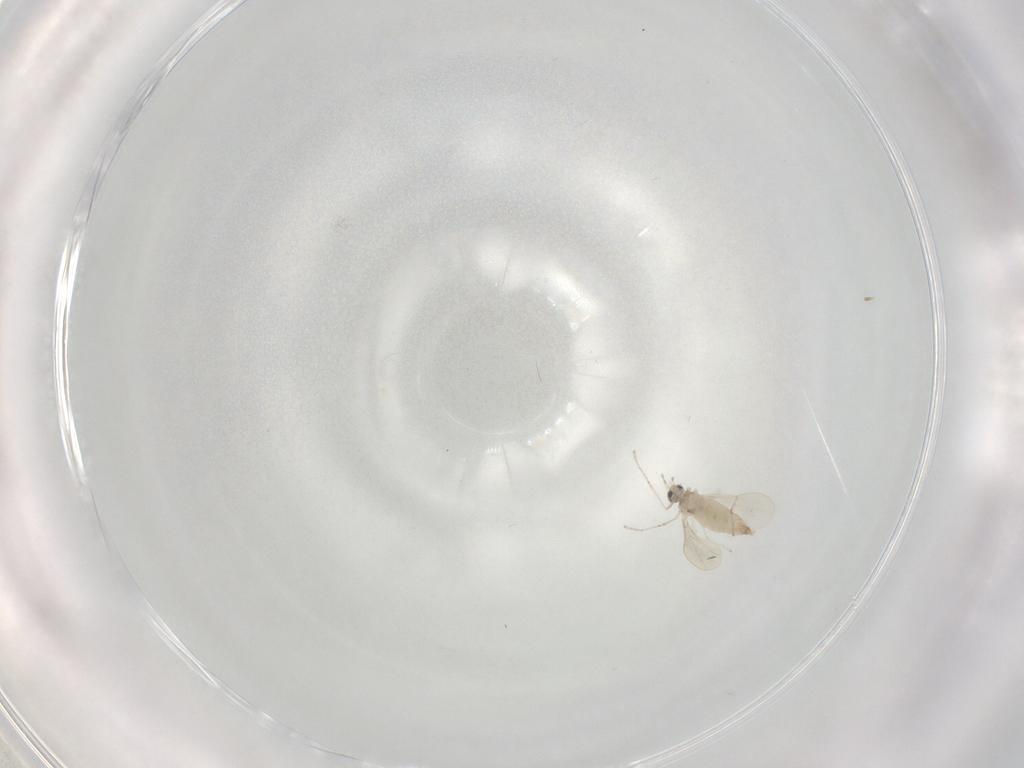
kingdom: Animalia
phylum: Arthropoda
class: Insecta
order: Diptera
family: Cecidomyiidae
